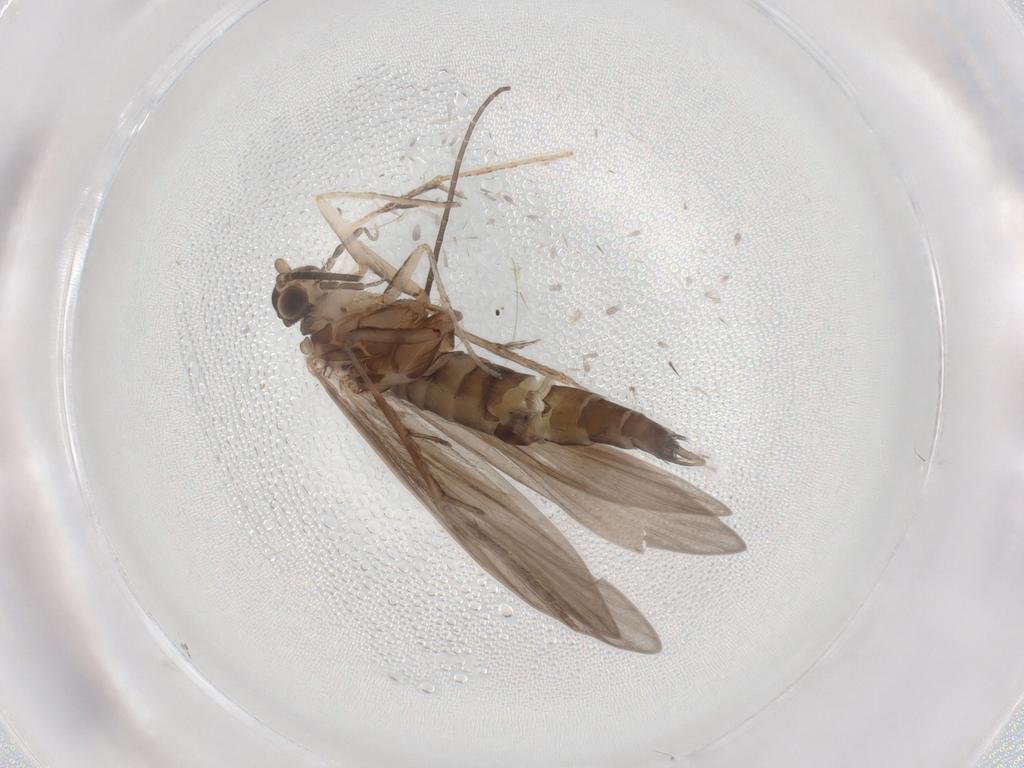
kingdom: Animalia
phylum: Arthropoda
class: Insecta
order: Trichoptera
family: Xiphocentronidae
